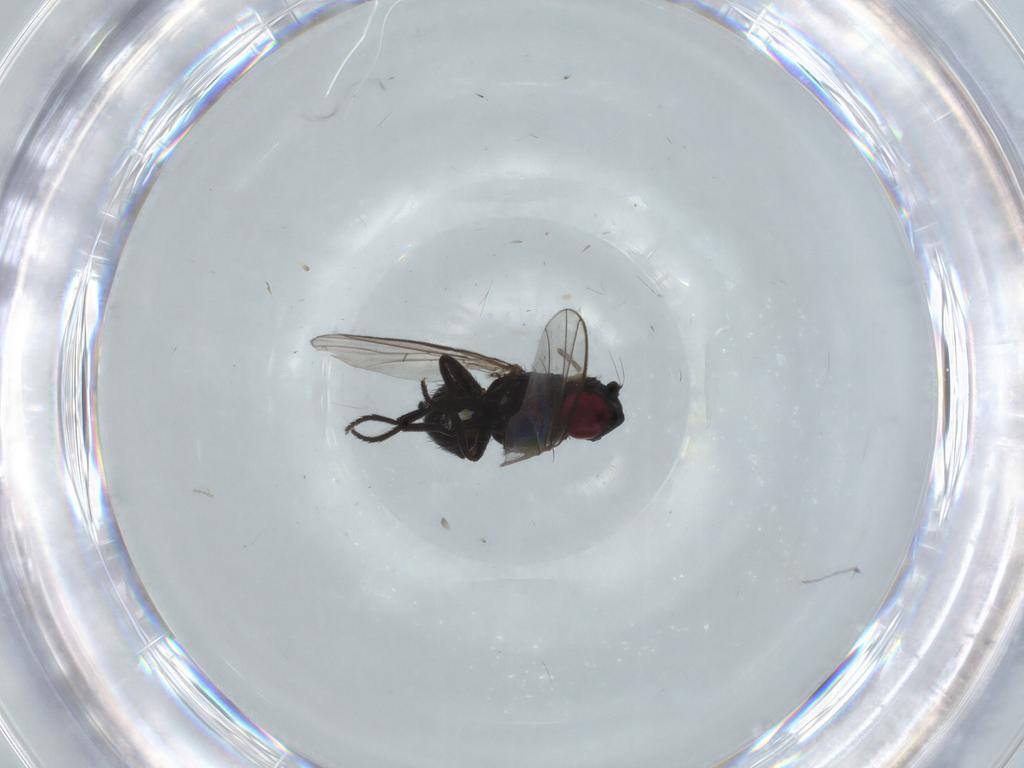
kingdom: Animalia
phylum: Arthropoda
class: Insecta
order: Diptera
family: Agromyzidae
